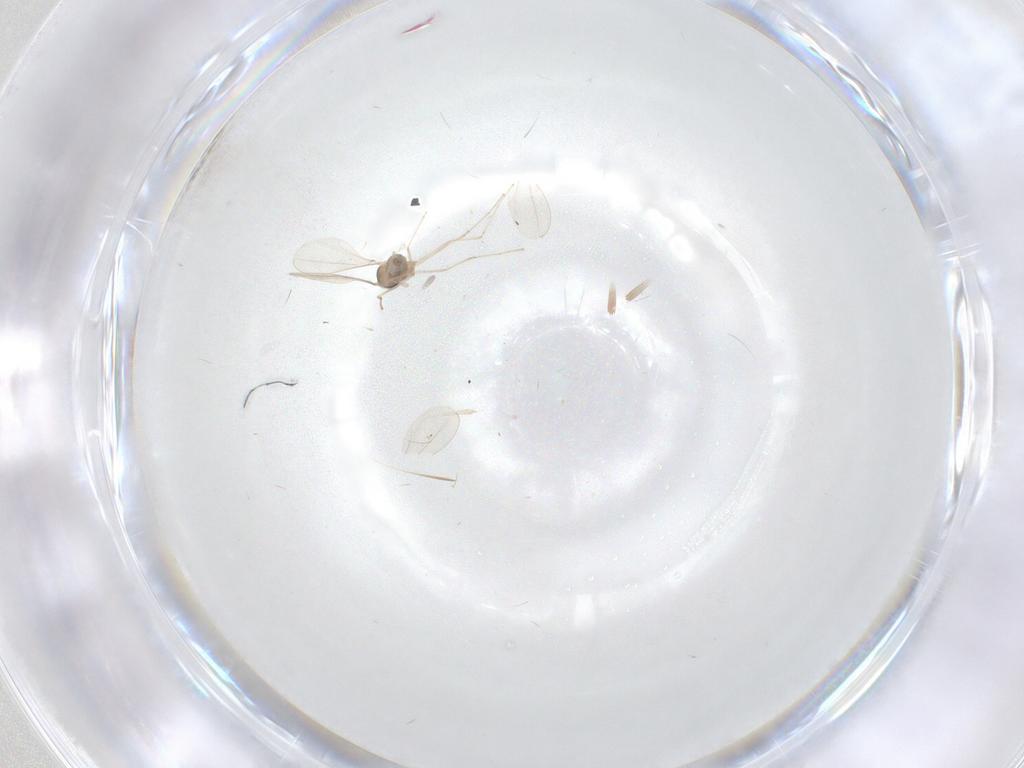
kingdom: Animalia
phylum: Arthropoda
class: Insecta
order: Diptera
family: Cecidomyiidae
